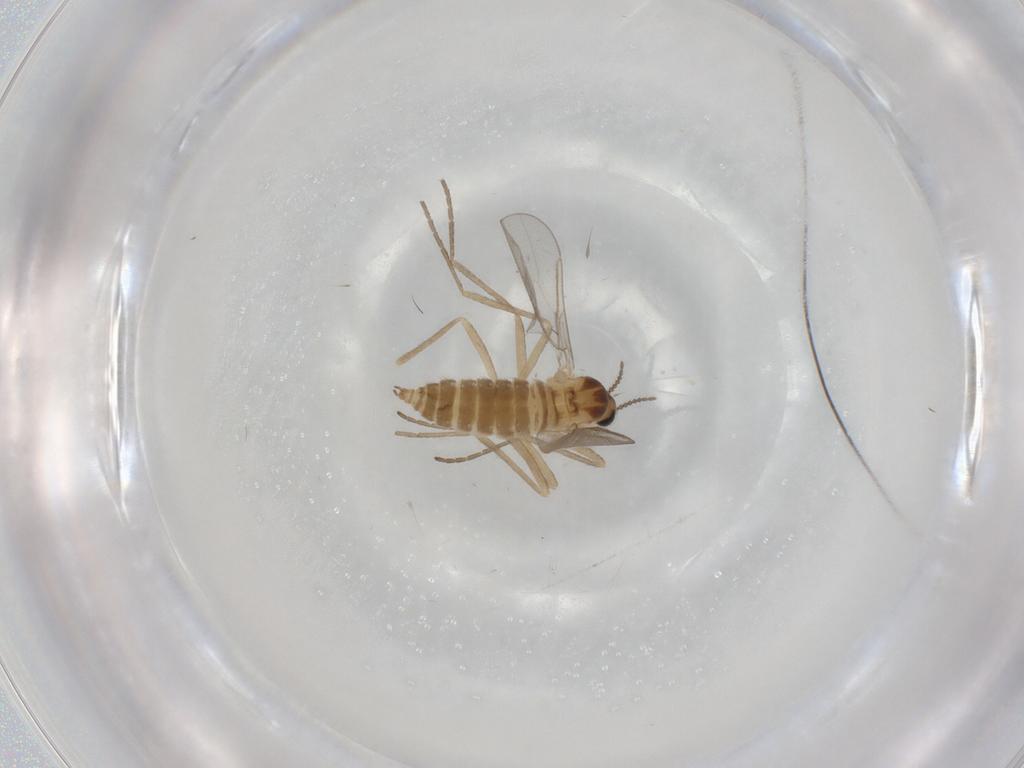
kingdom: Animalia
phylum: Arthropoda
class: Insecta
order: Diptera
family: Cecidomyiidae
